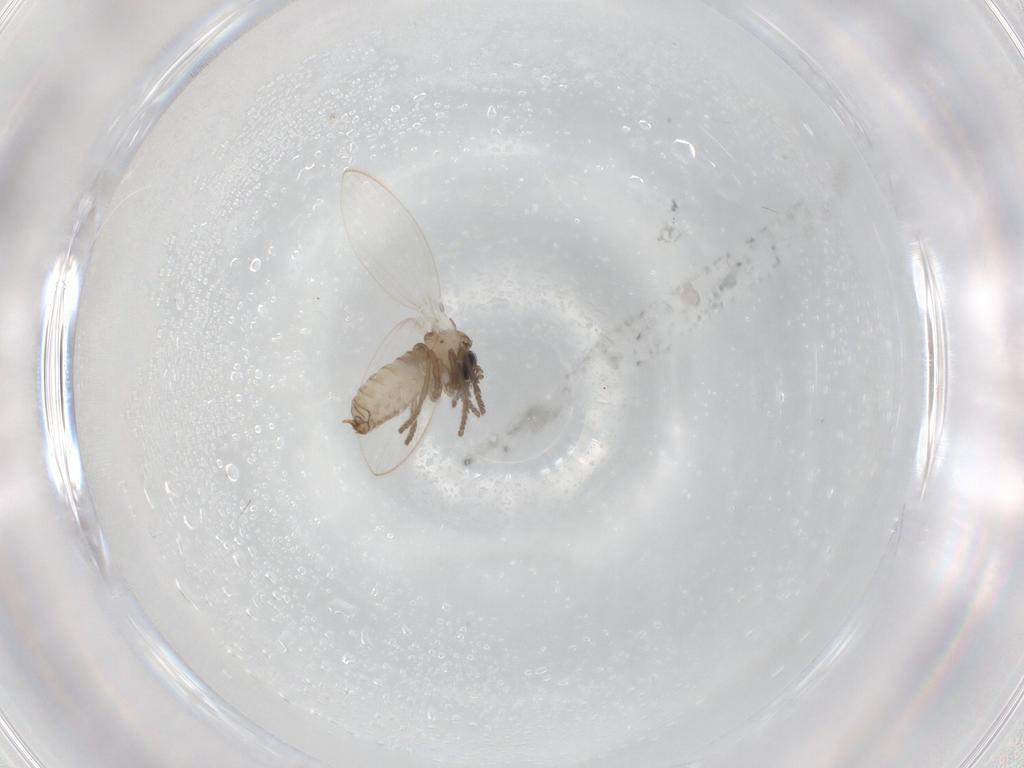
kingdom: Animalia
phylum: Arthropoda
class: Insecta
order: Diptera
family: Psychodidae
